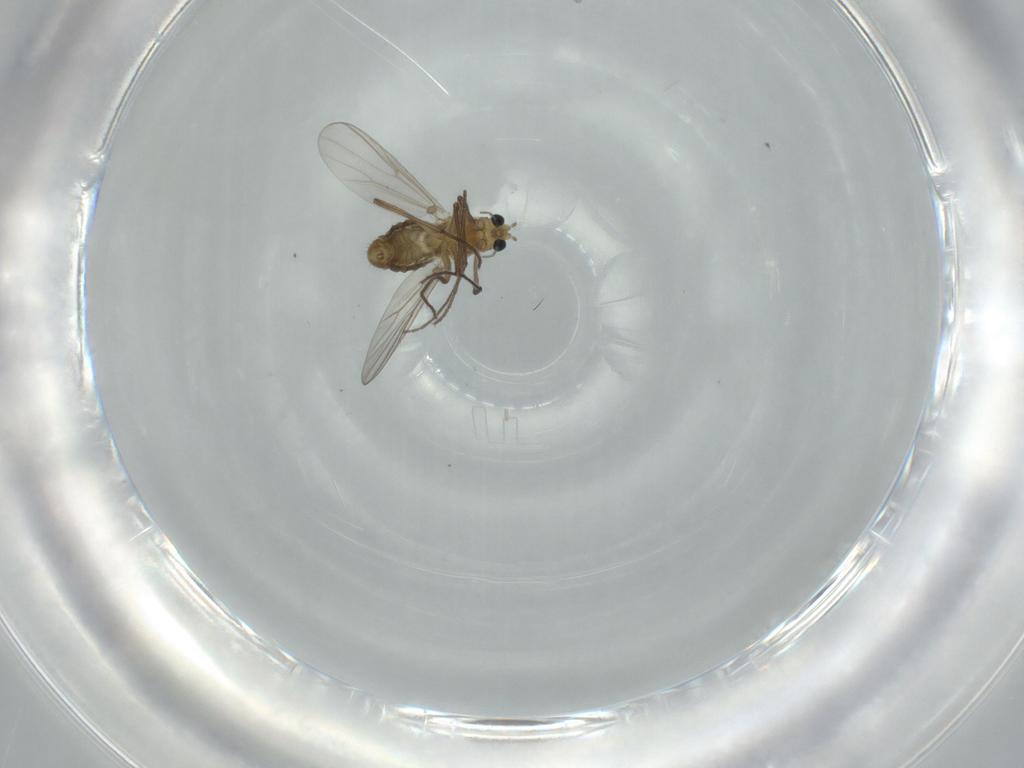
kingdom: Animalia
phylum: Arthropoda
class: Insecta
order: Diptera
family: Chironomidae
